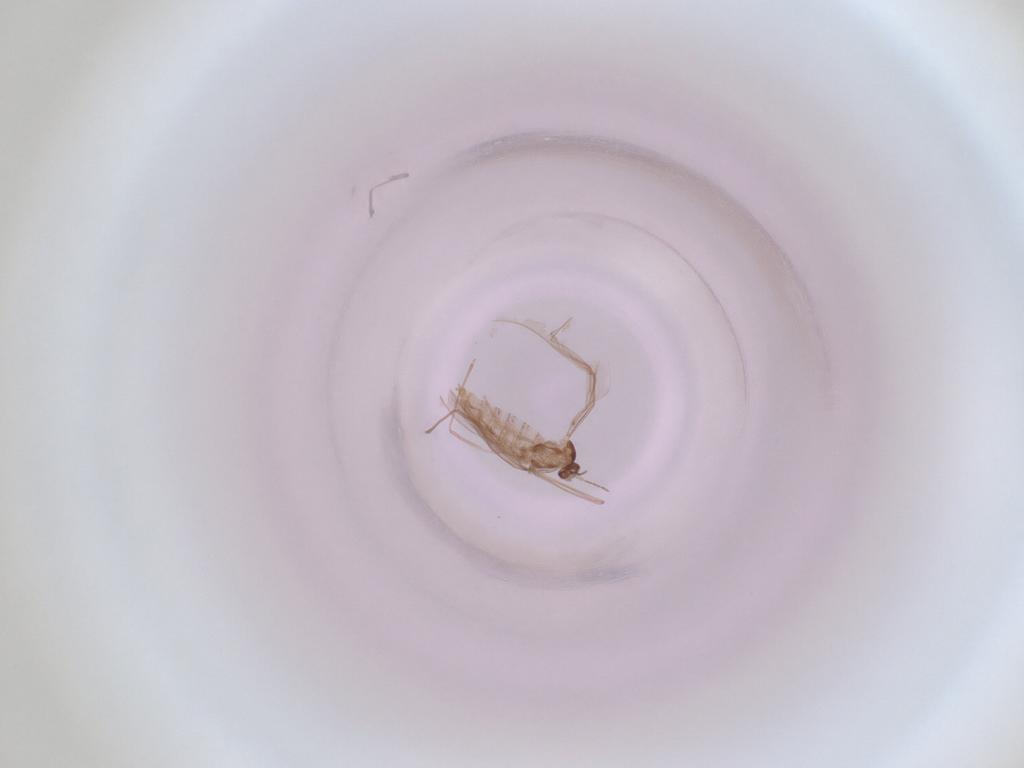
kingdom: Animalia
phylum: Arthropoda
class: Insecta
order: Diptera
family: Cecidomyiidae
